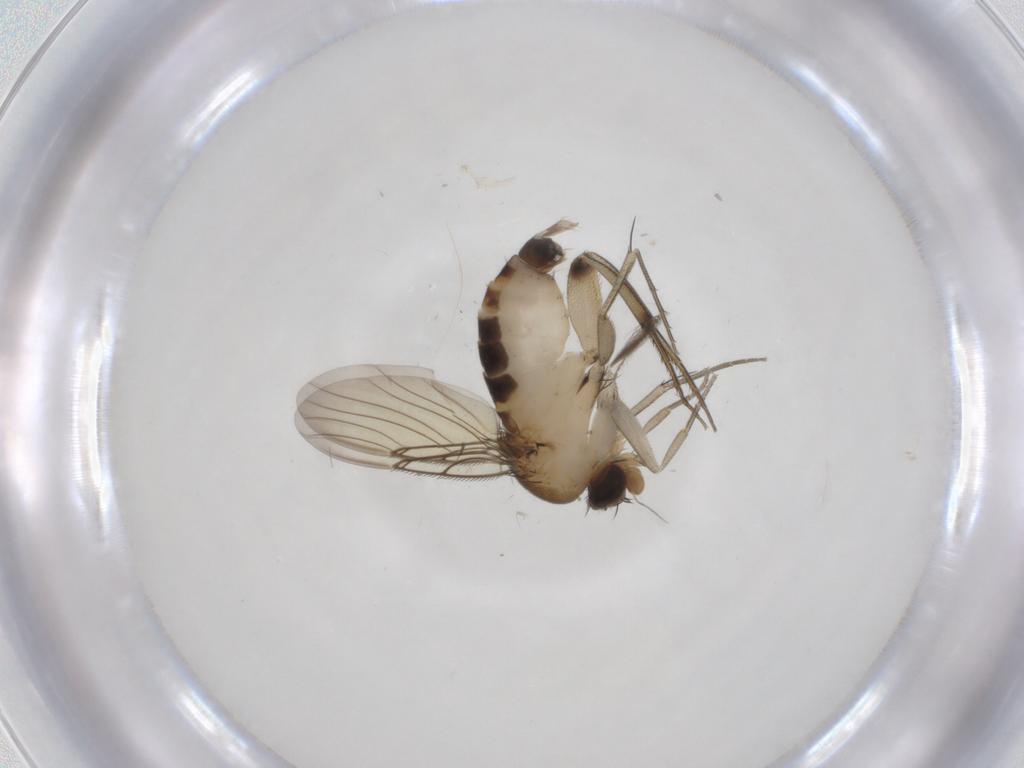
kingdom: Animalia
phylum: Arthropoda
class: Insecta
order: Diptera
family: Phoridae
